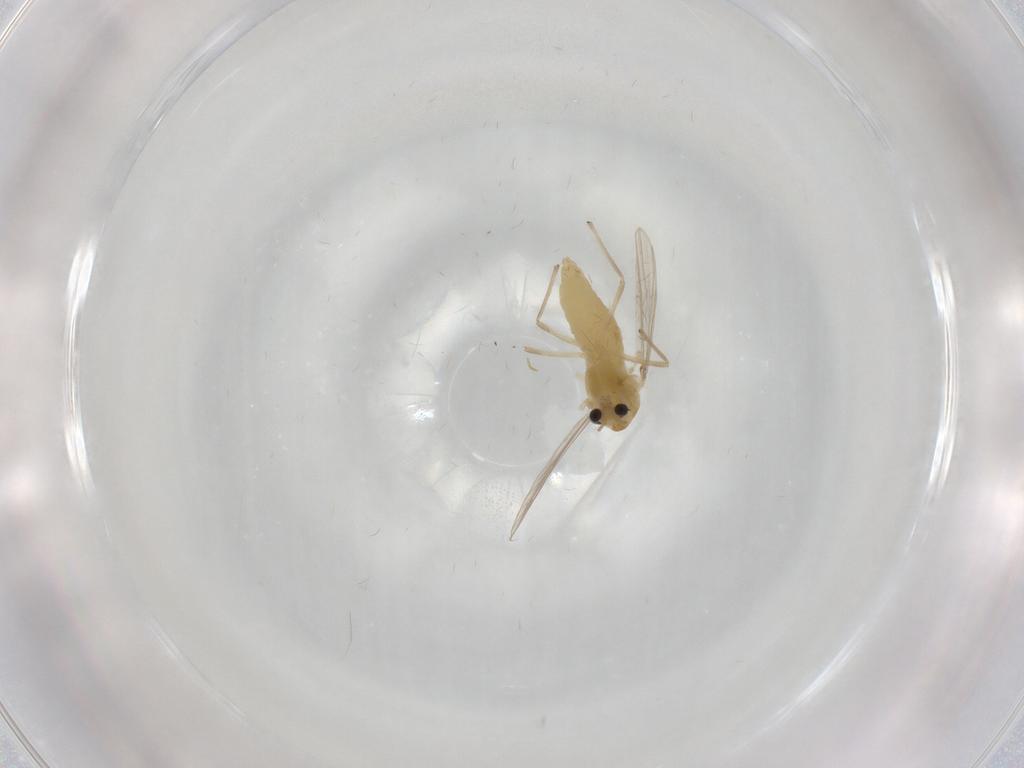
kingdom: Animalia
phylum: Arthropoda
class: Insecta
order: Diptera
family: Chironomidae
